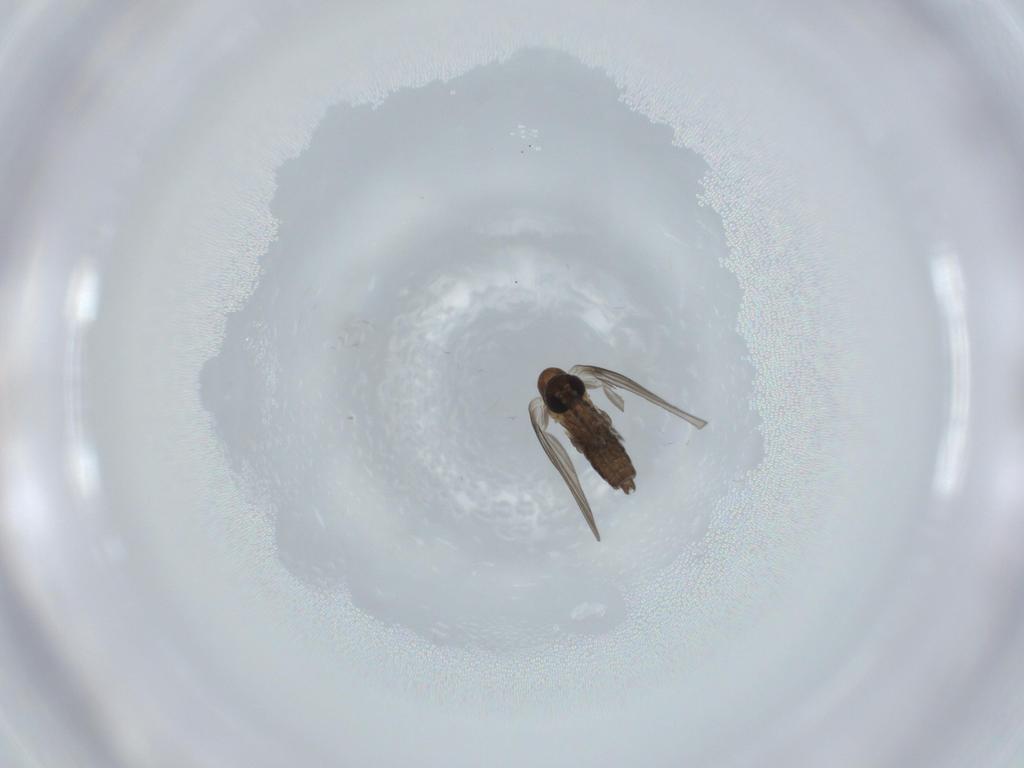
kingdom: Animalia
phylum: Arthropoda
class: Insecta
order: Diptera
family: Psychodidae
